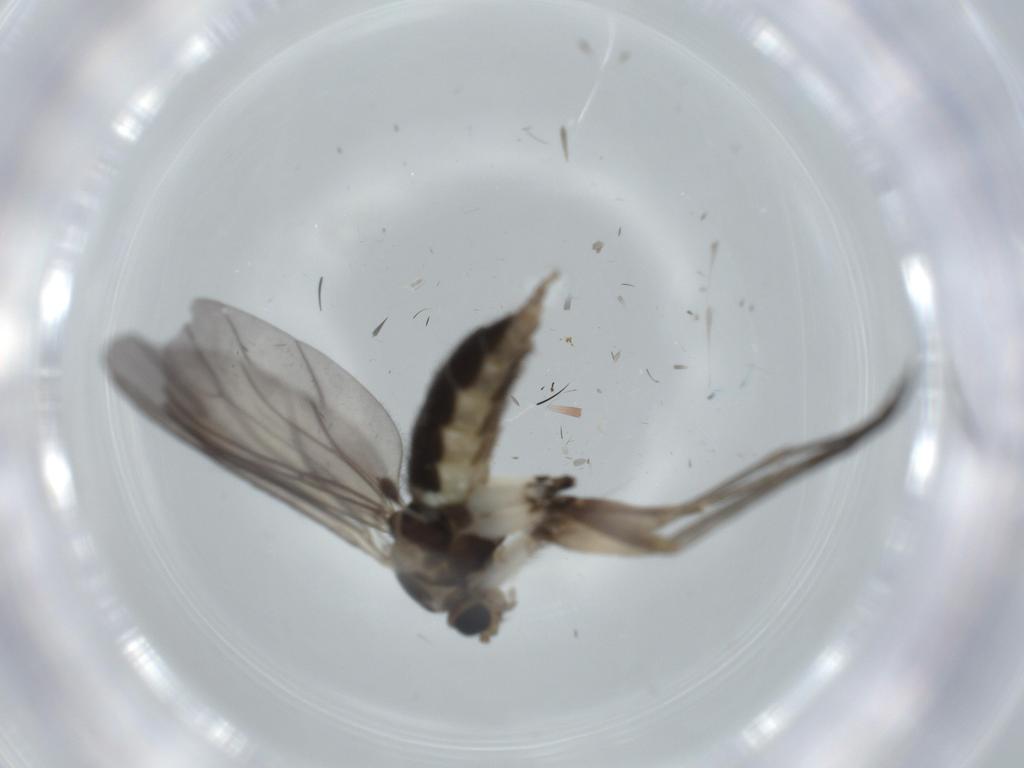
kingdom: Animalia
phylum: Arthropoda
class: Insecta
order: Diptera
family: Sciaridae
